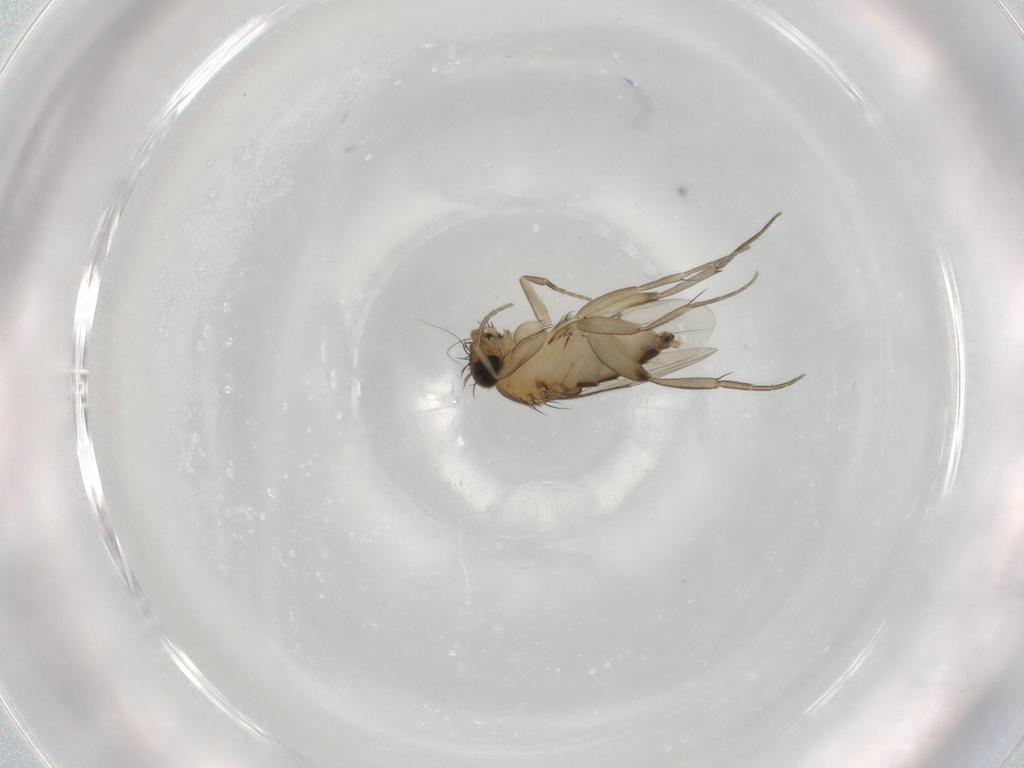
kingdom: Animalia
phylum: Arthropoda
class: Insecta
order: Diptera
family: Phoridae
